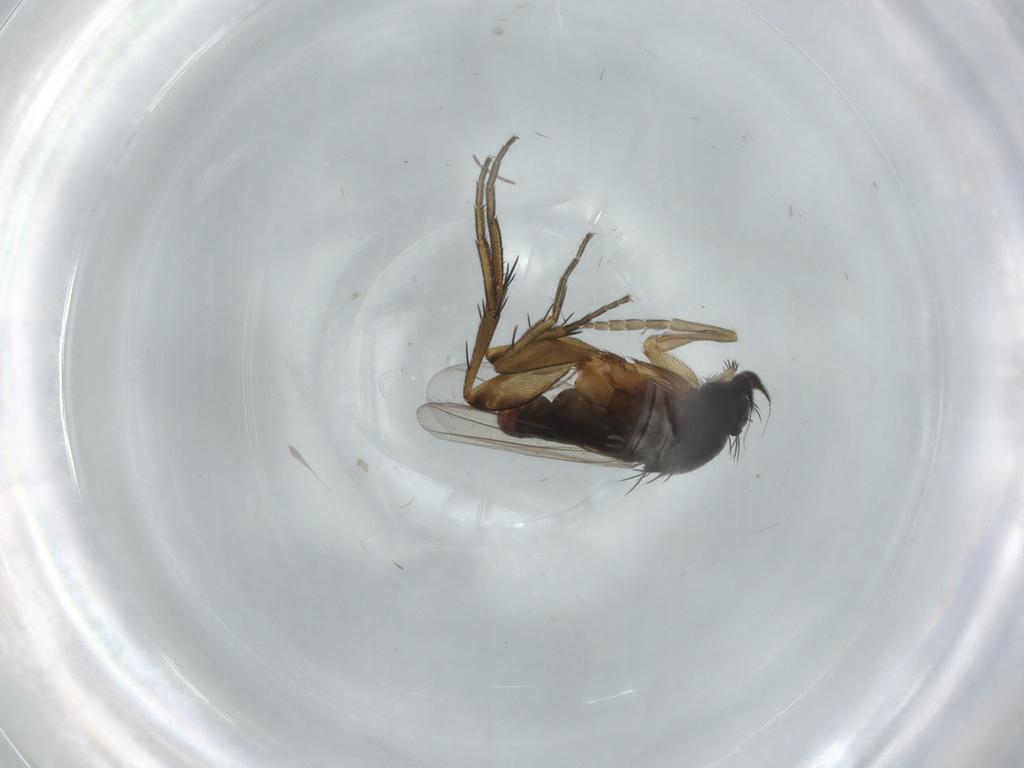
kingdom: Animalia
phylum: Arthropoda
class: Insecta
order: Diptera
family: Phoridae
